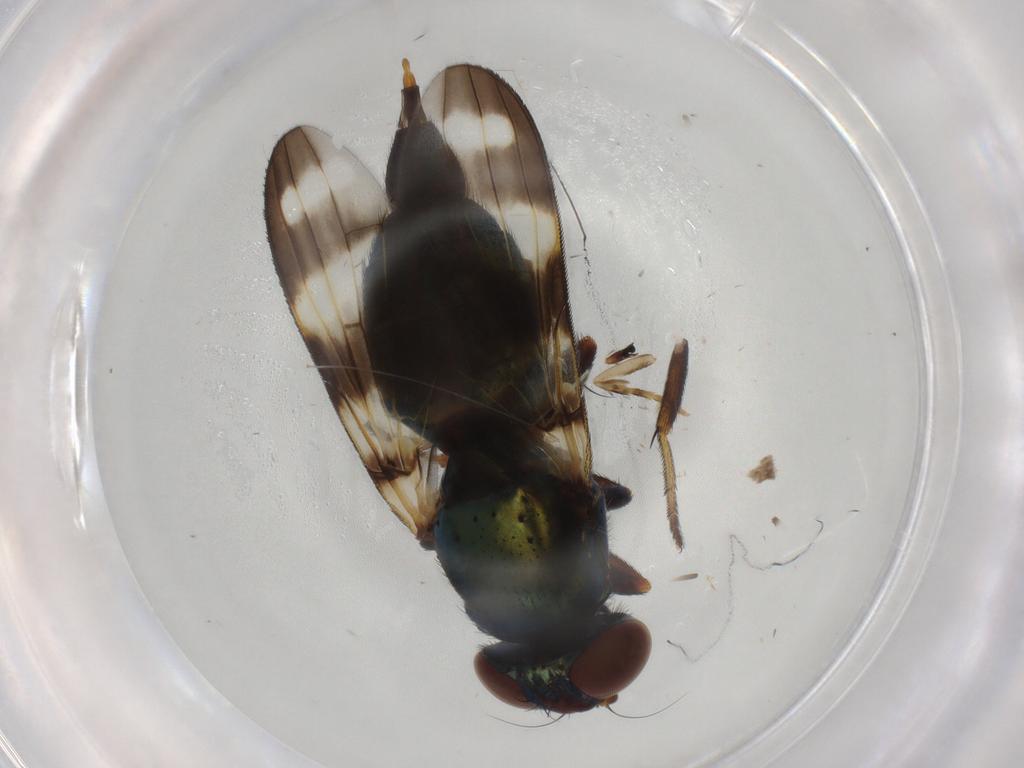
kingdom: Animalia
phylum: Arthropoda
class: Insecta
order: Diptera
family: Ulidiidae
